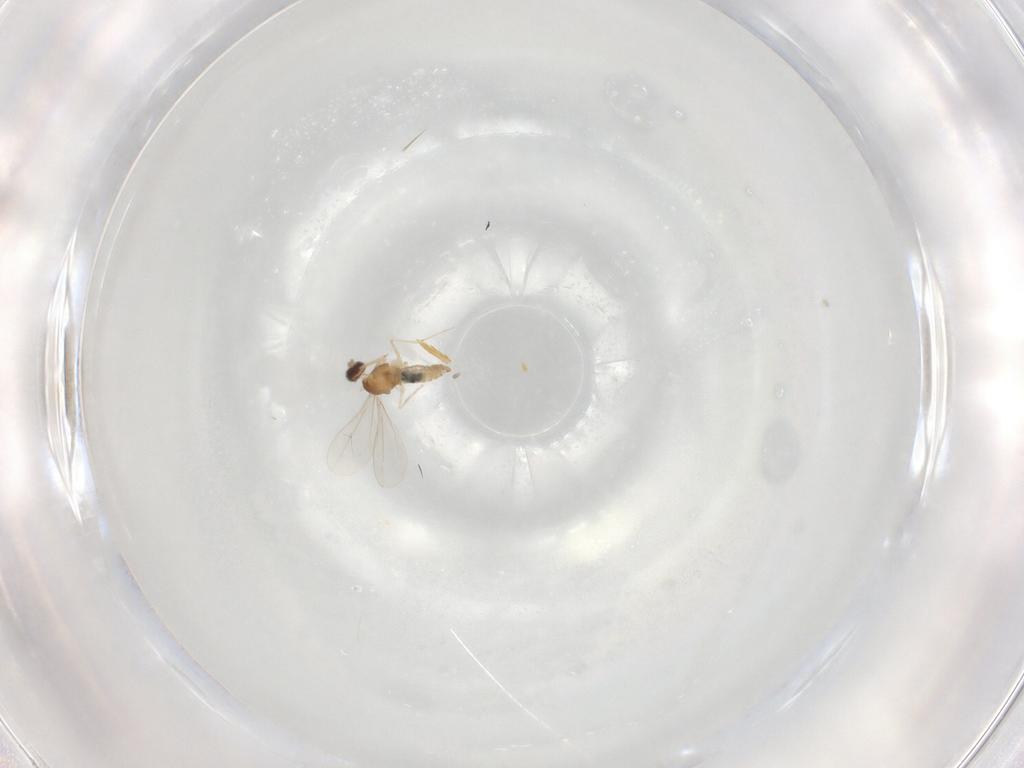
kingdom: Animalia
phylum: Arthropoda
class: Insecta
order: Diptera
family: Cecidomyiidae
